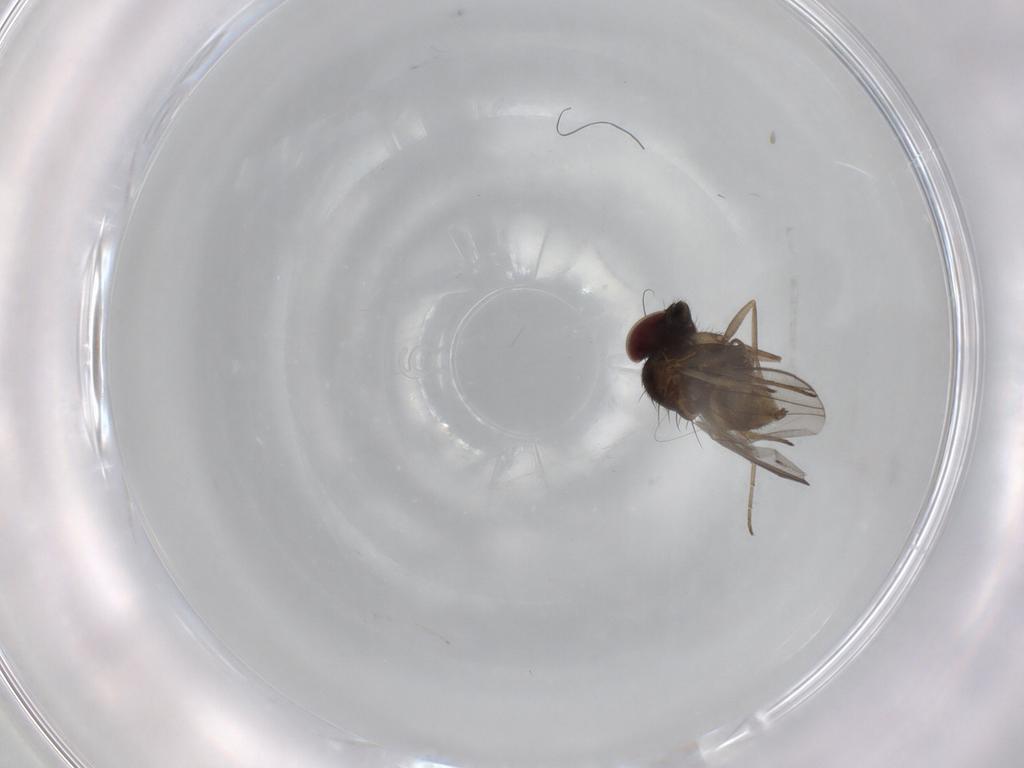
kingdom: Animalia
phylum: Arthropoda
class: Insecta
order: Diptera
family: Dolichopodidae
